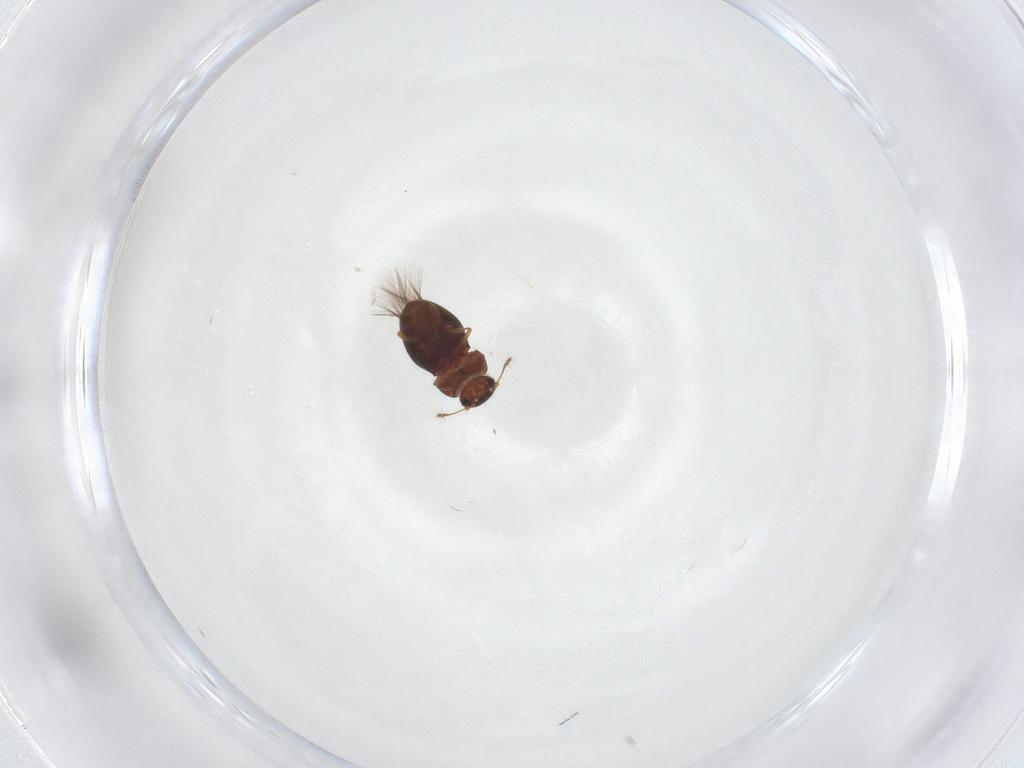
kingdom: Animalia
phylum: Arthropoda
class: Insecta
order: Coleoptera
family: Ptiliidae
